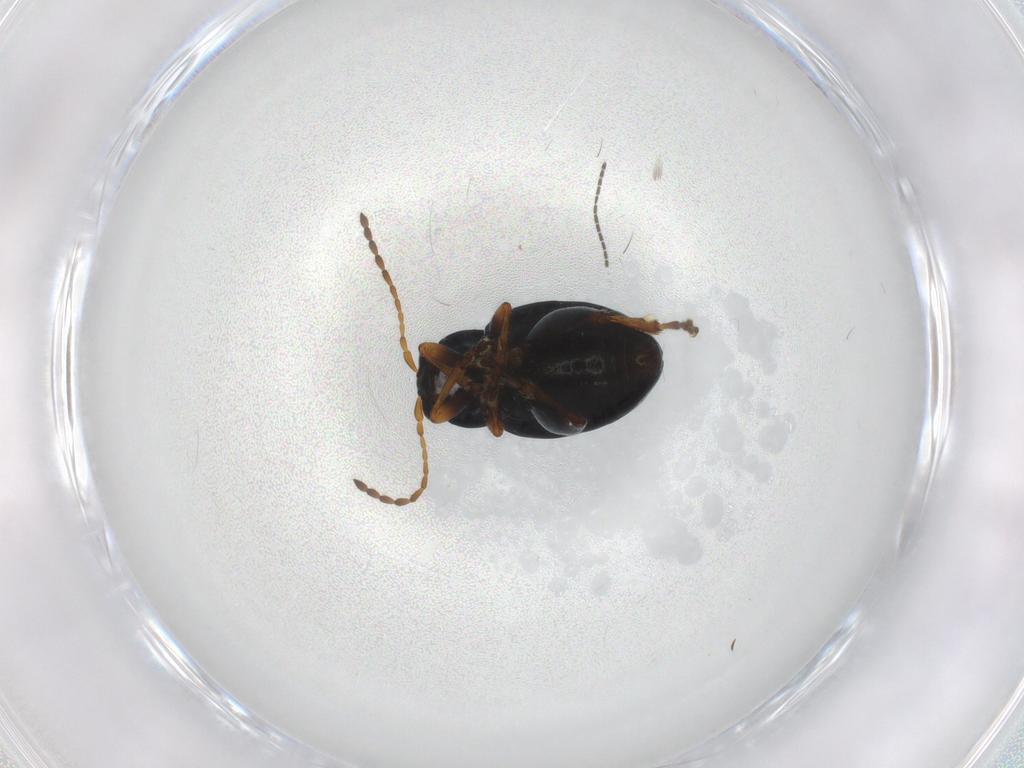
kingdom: Animalia
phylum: Arthropoda
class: Insecta
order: Coleoptera
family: Chrysomelidae
